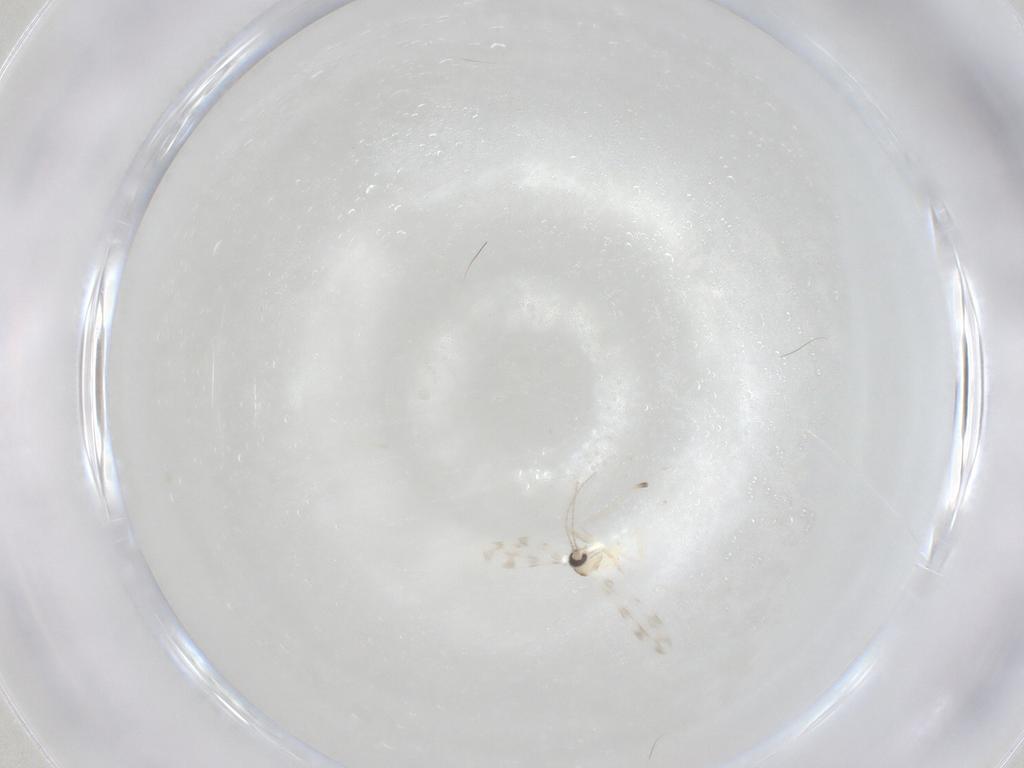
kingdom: Animalia
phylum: Arthropoda
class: Insecta
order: Diptera
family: Hybotidae
